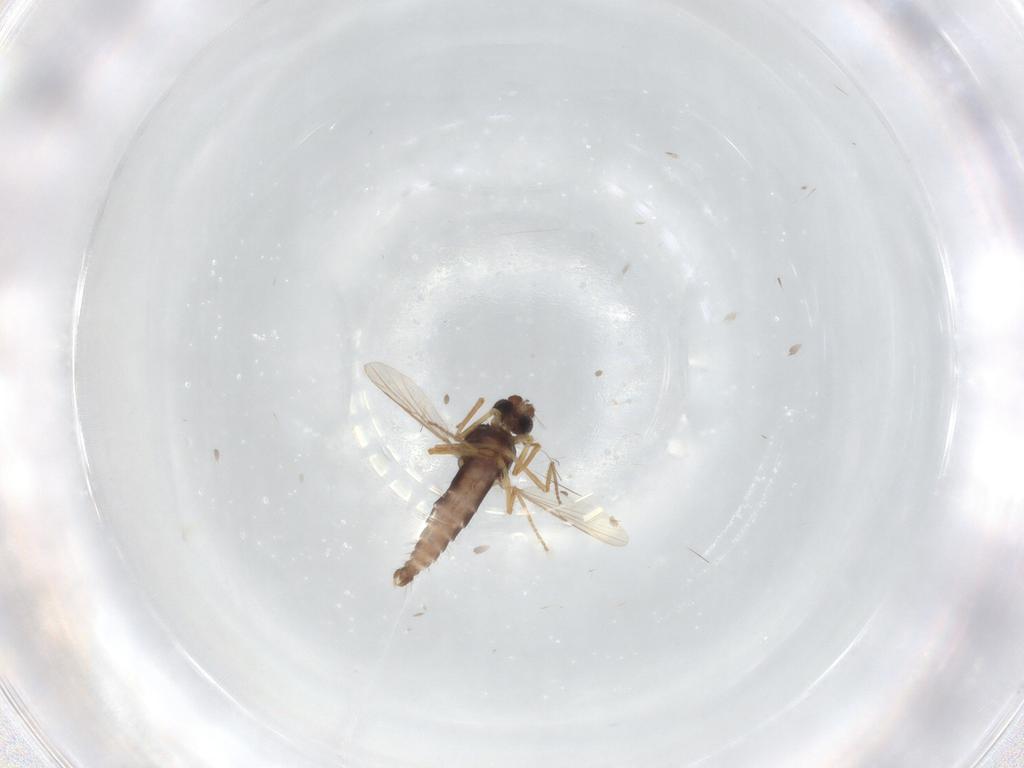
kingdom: Animalia
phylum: Arthropoda
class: Insecta
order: Diptera
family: Ceratopogonidae
